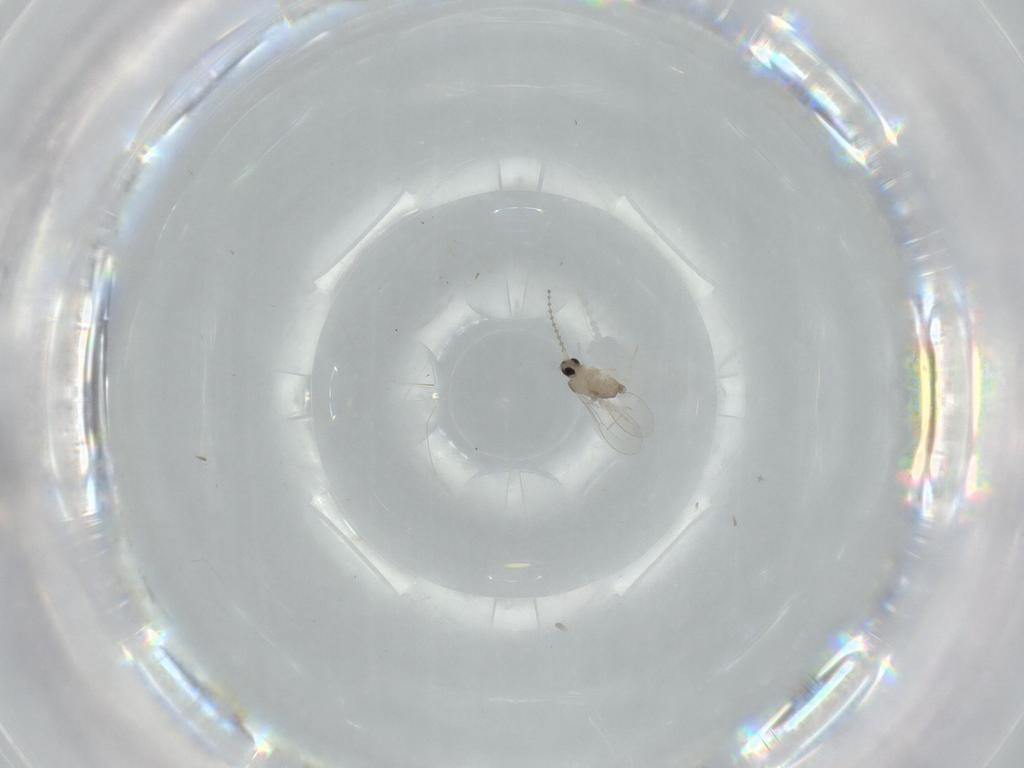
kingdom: Animalia
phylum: Arthropoda
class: Insecta
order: Diptera
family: Cecidomyiidae
